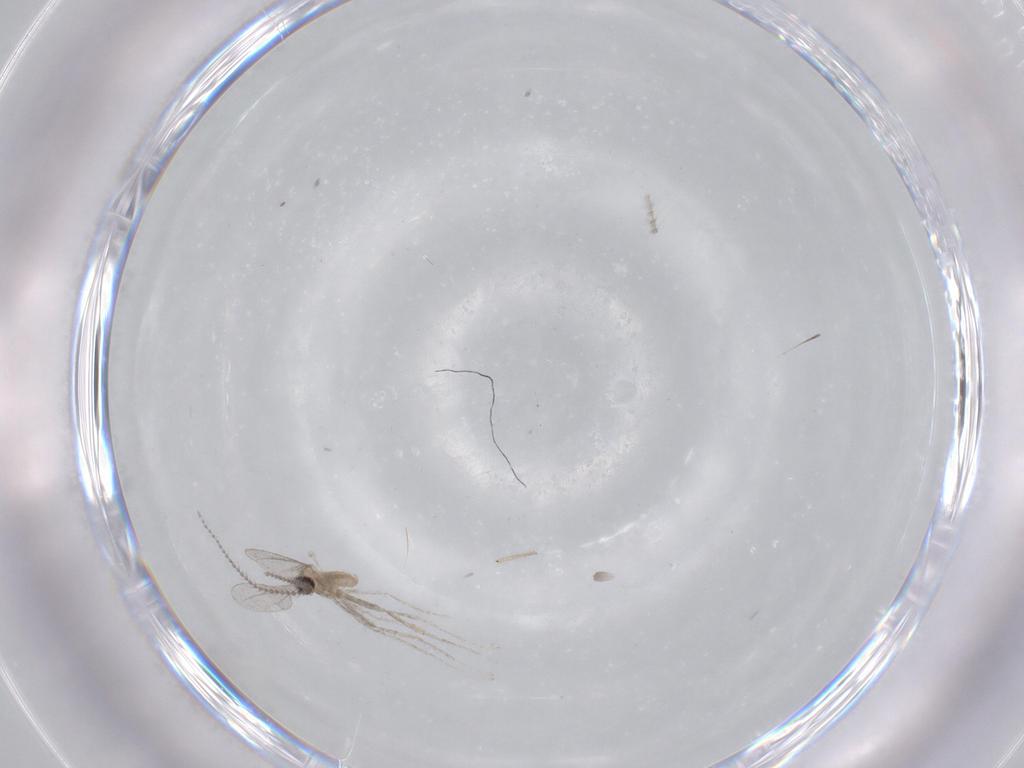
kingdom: Animalia
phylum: Arthropoda
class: Insecta
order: Diptera
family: Chironomidae
